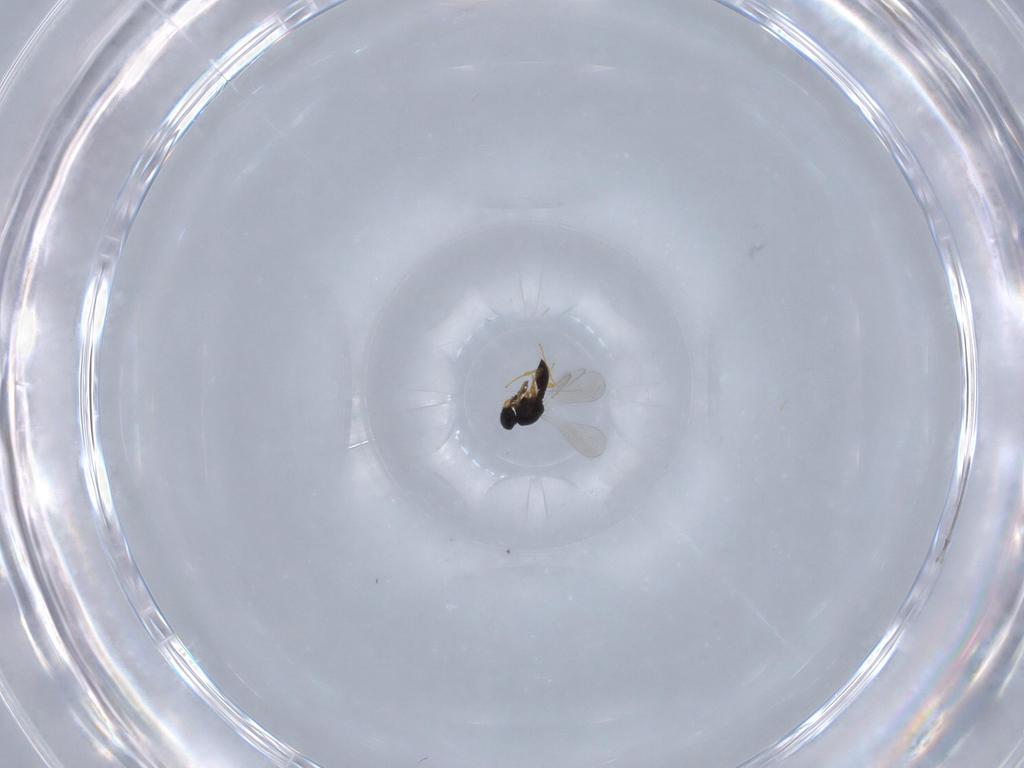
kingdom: Animalia
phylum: Arthropoda
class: Insecta
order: Hymenoptera
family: Platygastridae
